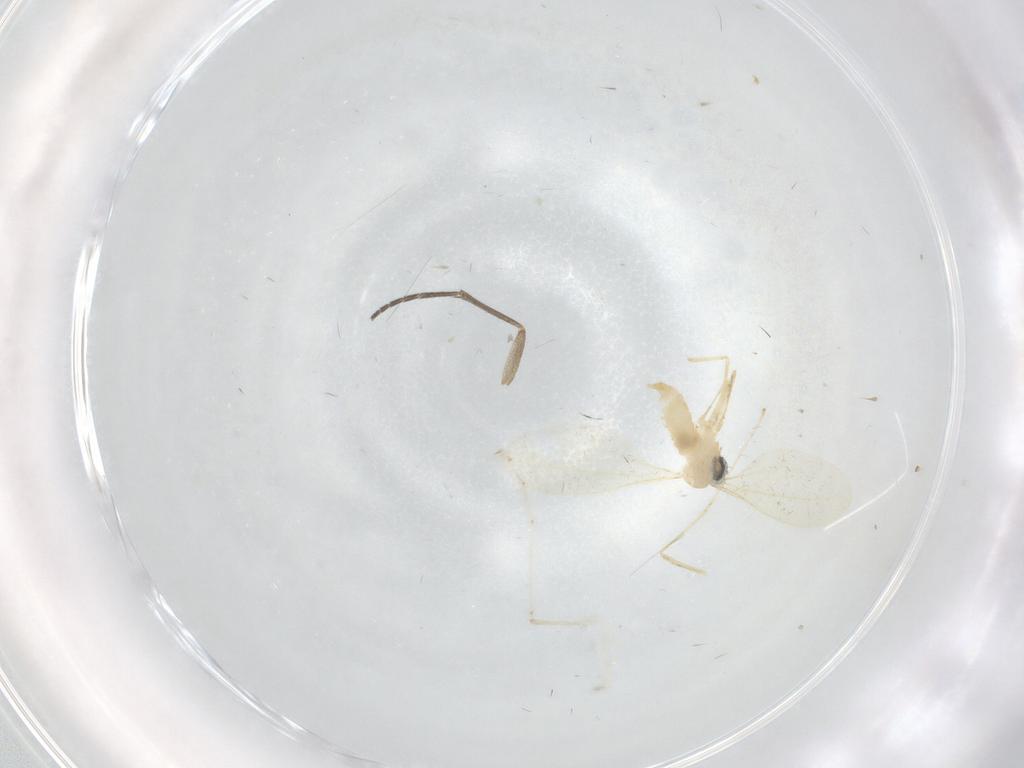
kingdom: Animalia
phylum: Arthropoda
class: Insecta
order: Diptera
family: Cecidomyiidae
